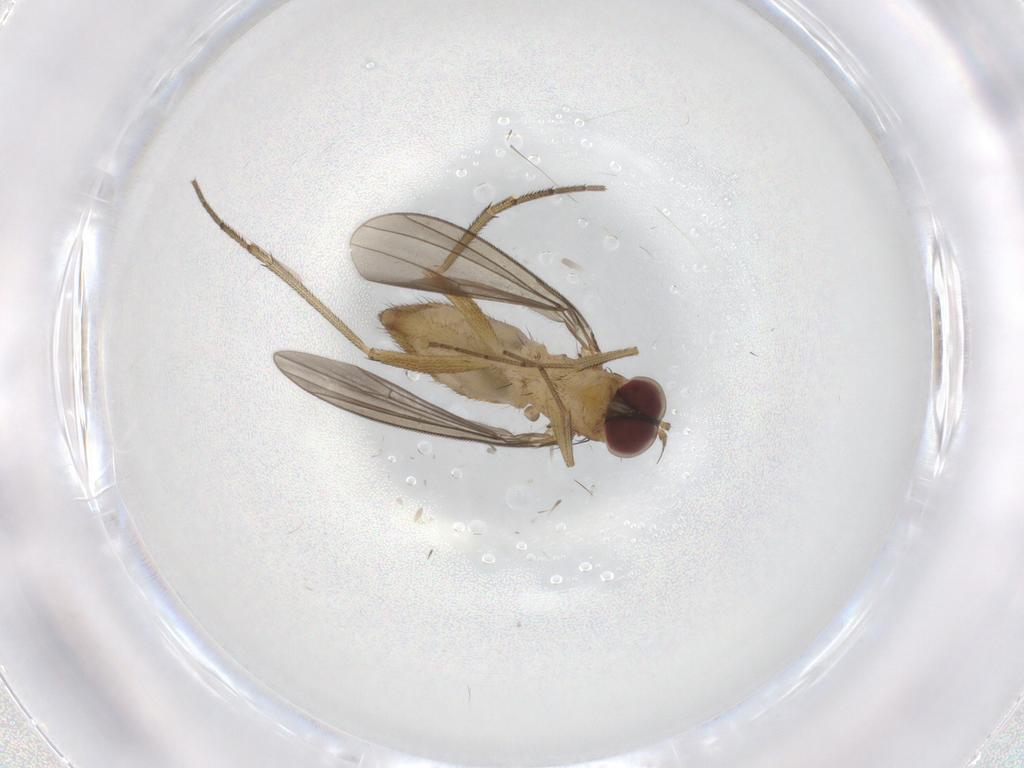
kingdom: Animalia
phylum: Arthropoda
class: Insecta
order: Diptera
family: Dolichopodidae
